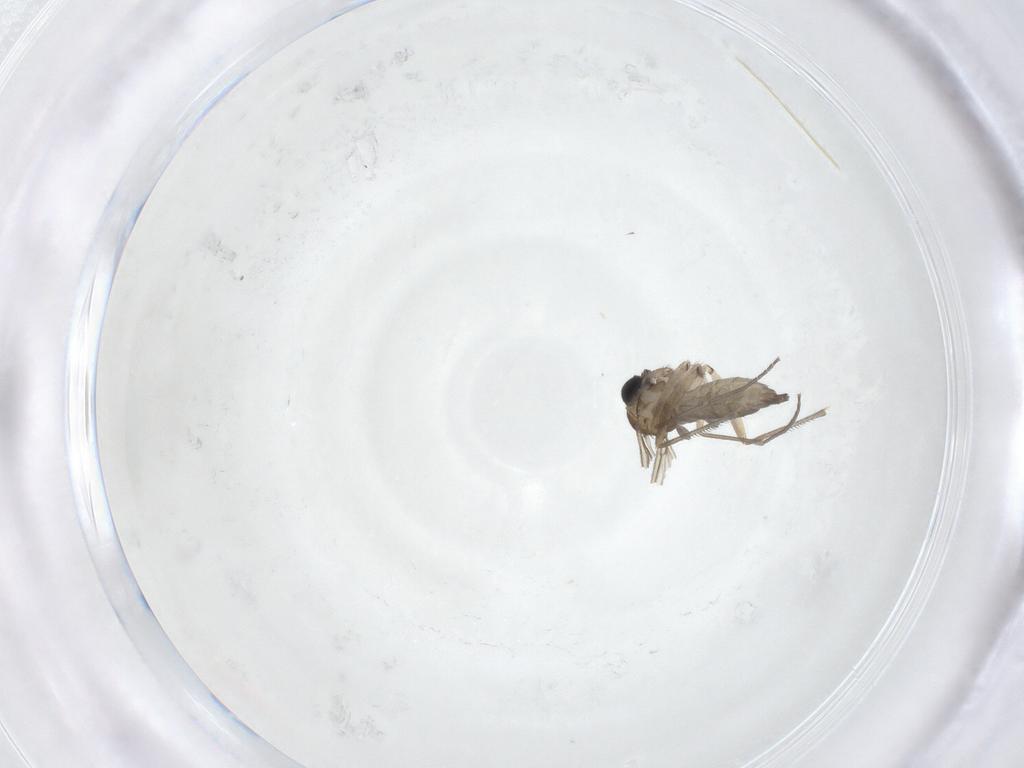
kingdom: Animalia
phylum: Arthropoda
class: Insecta
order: Diptera
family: Sciaridae
